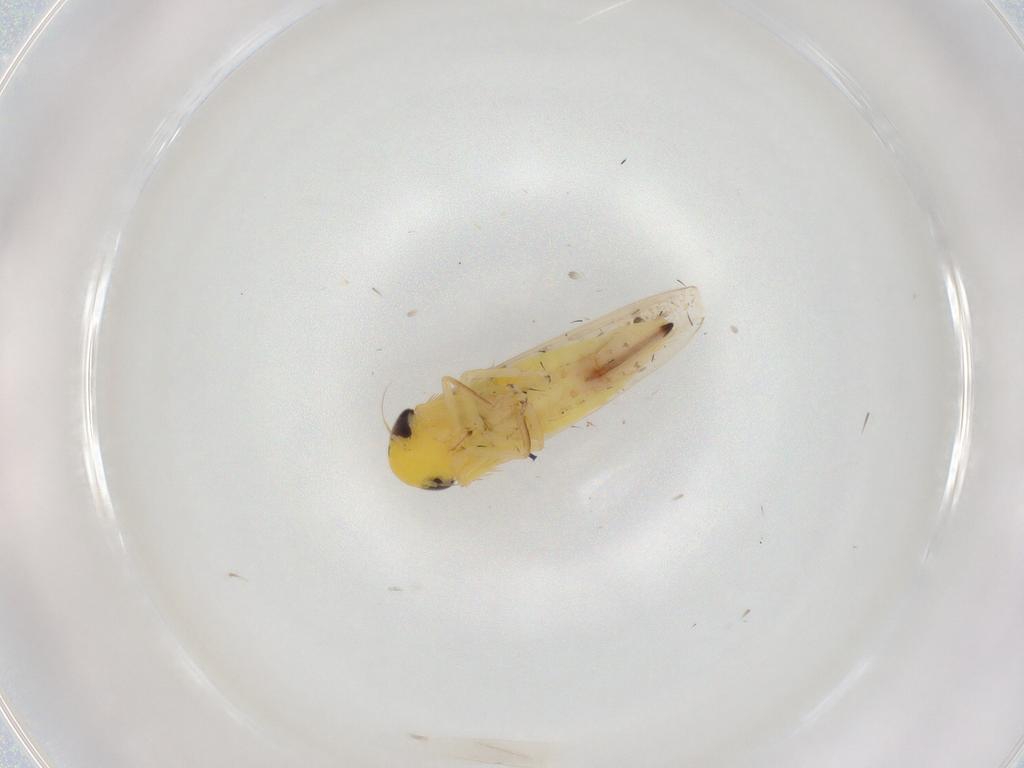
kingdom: Animalia
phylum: Arthropoda
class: Insecta
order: Hemiptera
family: Cicadellidae
